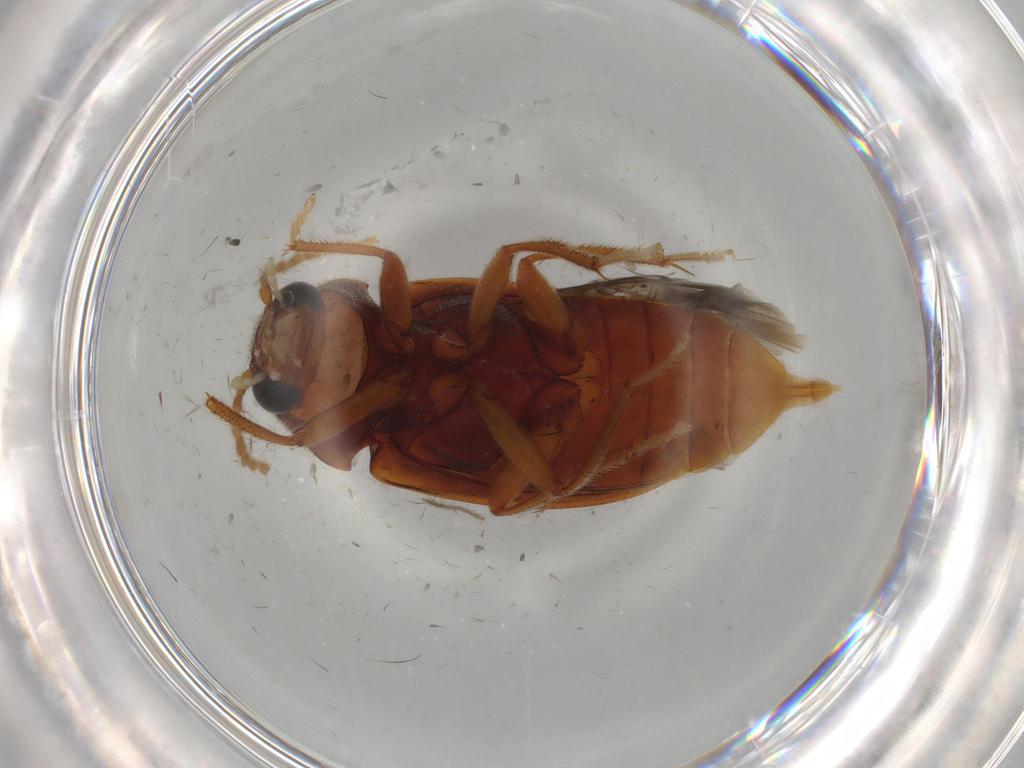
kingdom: Animalia
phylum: Arthropoda
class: Insecta
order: Coleoptera
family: Ptilodactylidae
